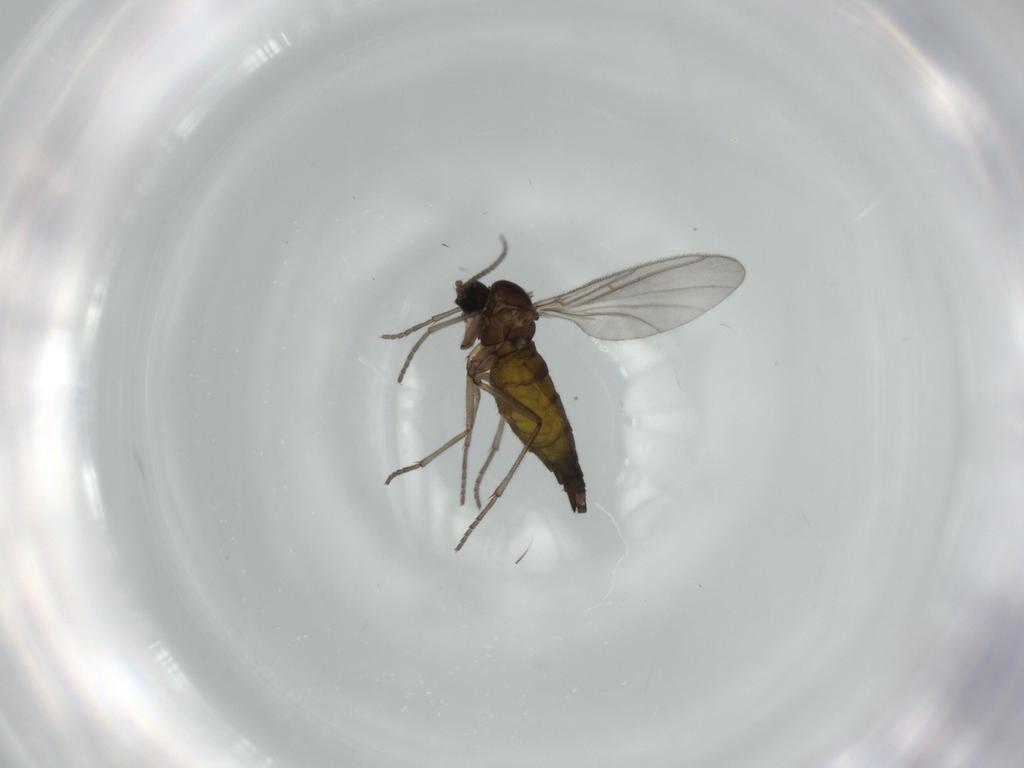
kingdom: Animalia
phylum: Arthropoda
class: Insecta
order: Diptera
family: Sciaridae
